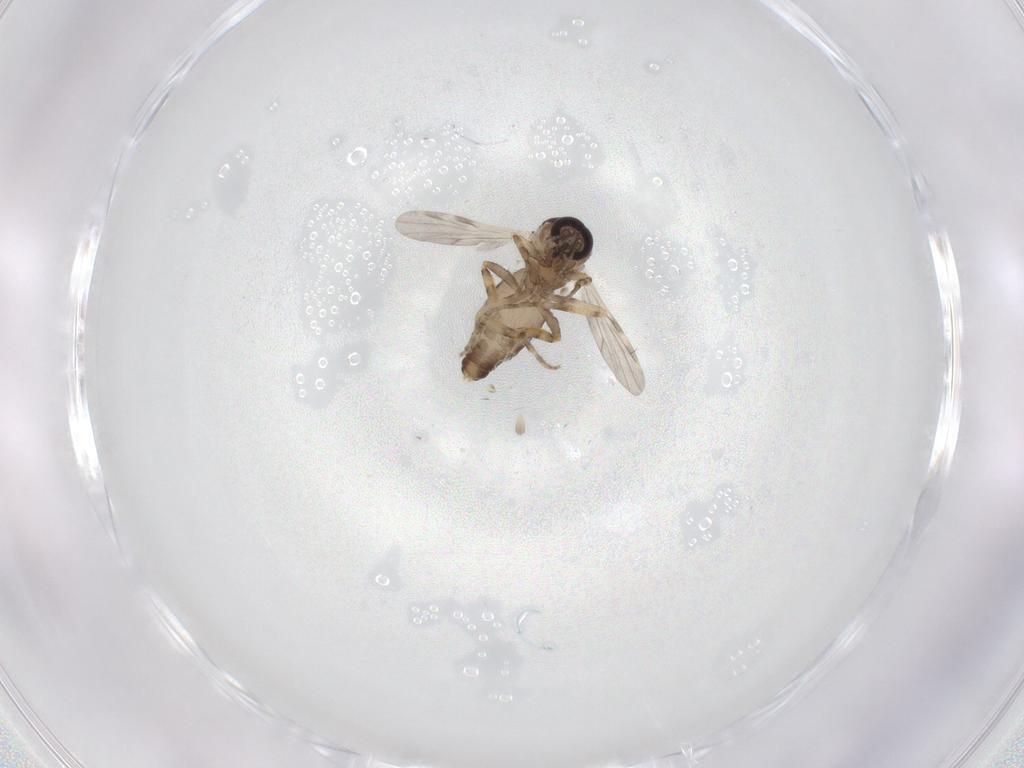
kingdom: Animalia
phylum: Arthropoda
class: Insecta
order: Diptera
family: Ceratopogonidae
